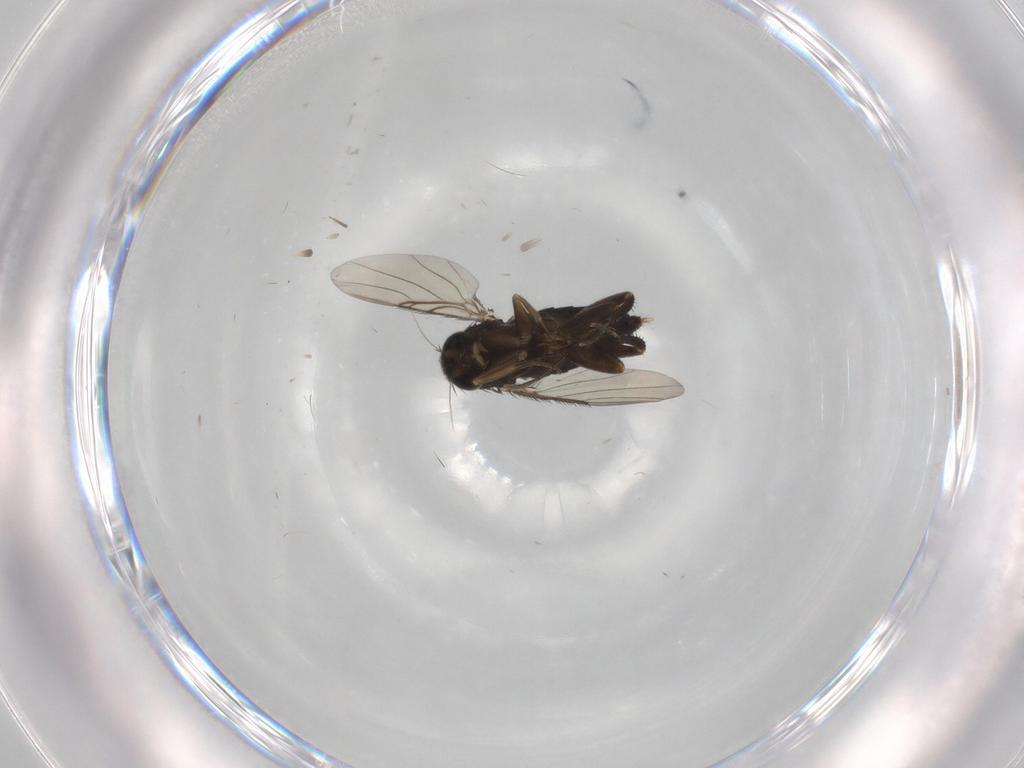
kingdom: Animalia
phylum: Arthropoda
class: Insecta
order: Diptera
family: Phoridae
